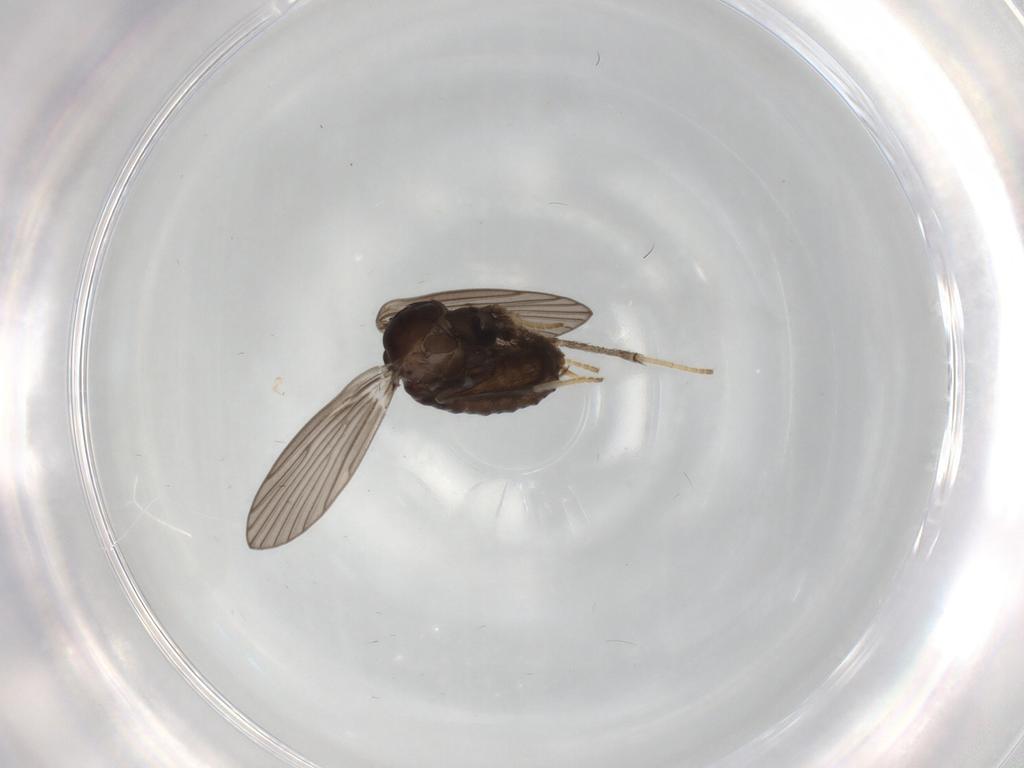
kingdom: Animalia
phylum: Arthropoda
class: Insecta
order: Diptera
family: Psychodidae
